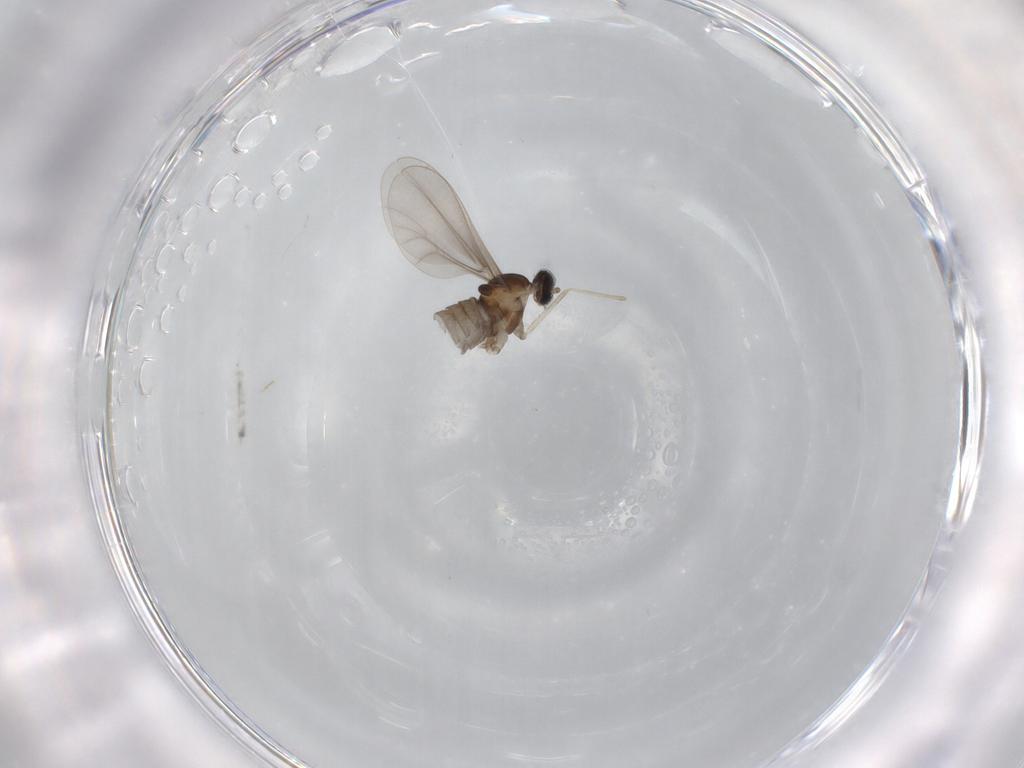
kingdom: Animalia
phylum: Arthropoda
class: Insecta
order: Diptera
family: Cecidomyiidae
